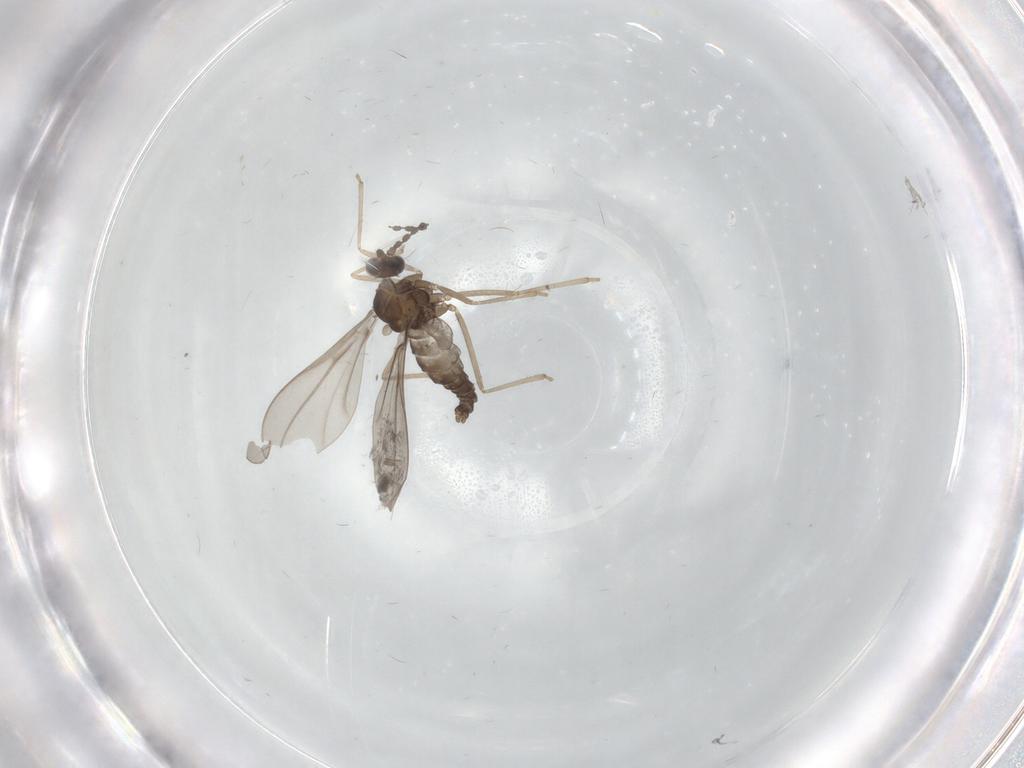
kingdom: Animalia
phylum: Arthropoda
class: Insecta
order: Diptera
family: Cecidomyiidae
